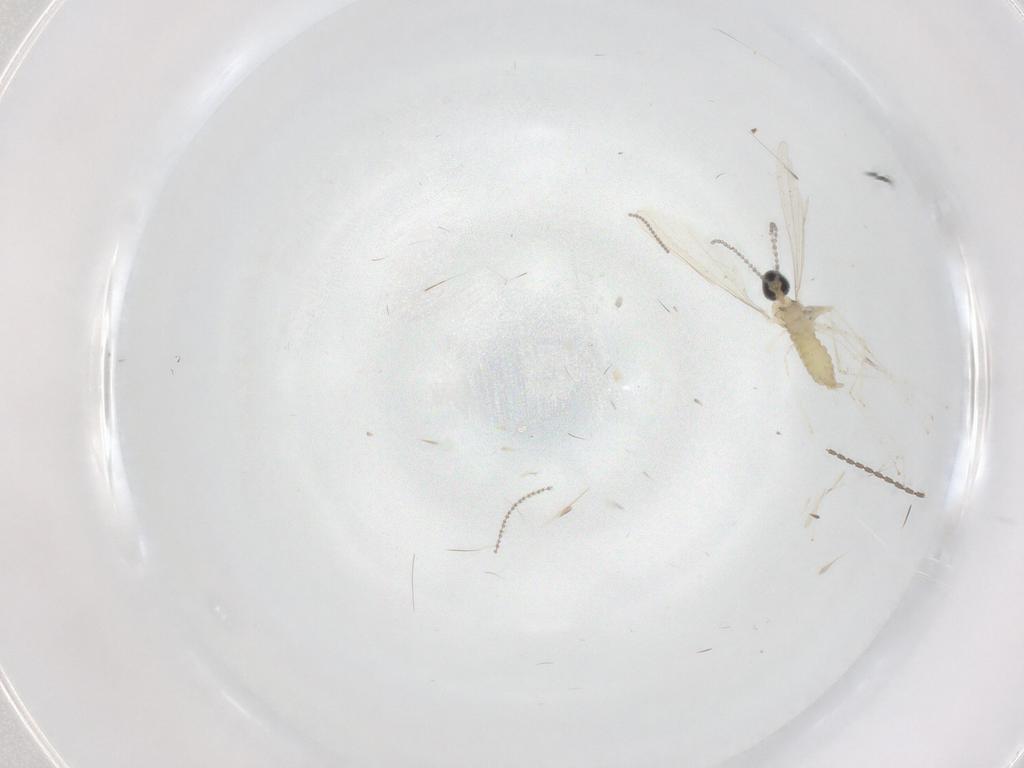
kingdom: Animalia
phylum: Arthropoda
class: Insecta
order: Diptera
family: Cecidomyiidae
